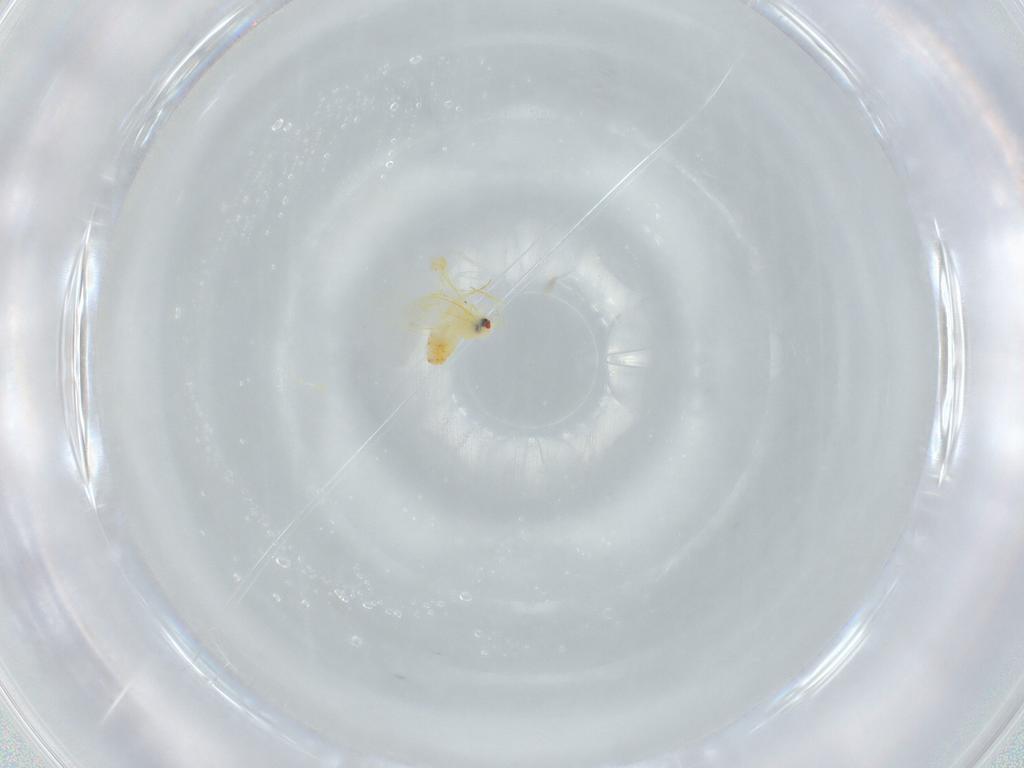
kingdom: Animalia
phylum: Arthropoda
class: Insecta
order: Hemiptera
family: Aleyrodidae
